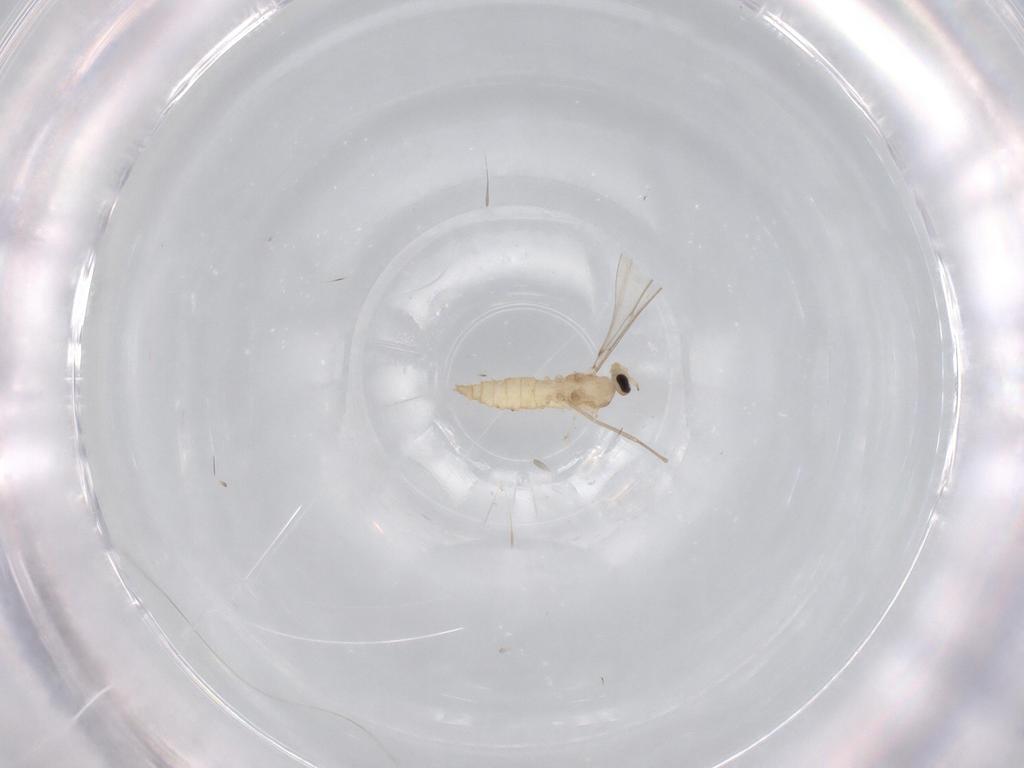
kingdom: Animalia
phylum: Arthropoda
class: Insecta
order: Diptera
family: Cecidomyiidae
